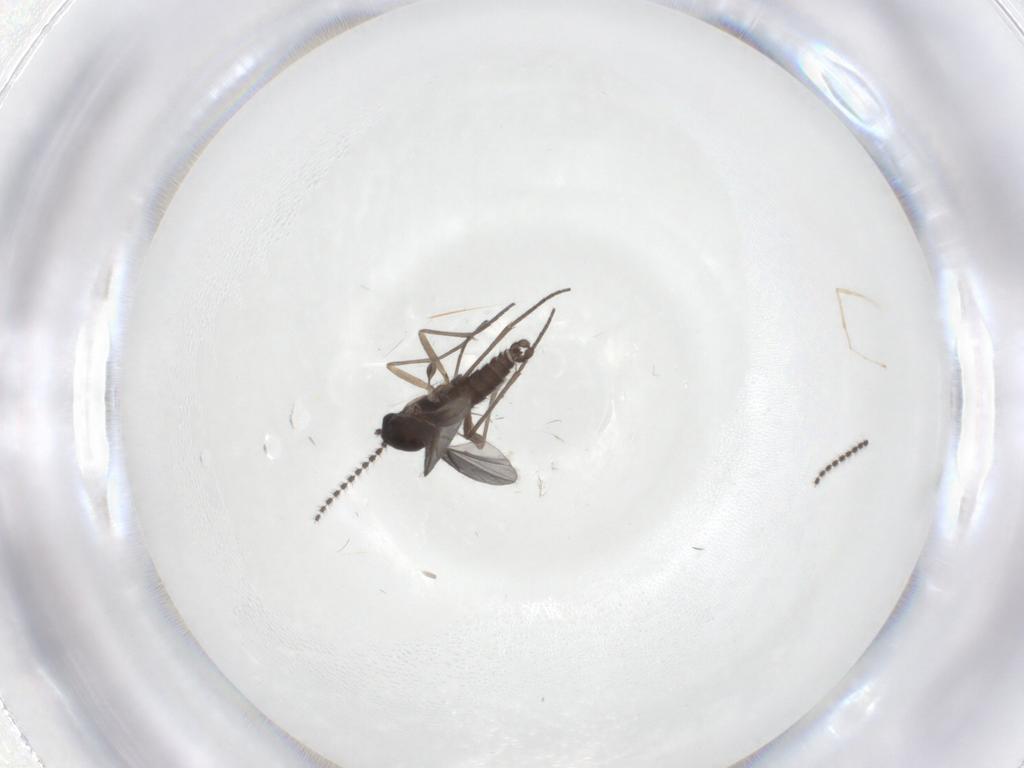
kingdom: Animalia
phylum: Arthropoda
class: Insecta
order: Diptera
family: Sciaridae
